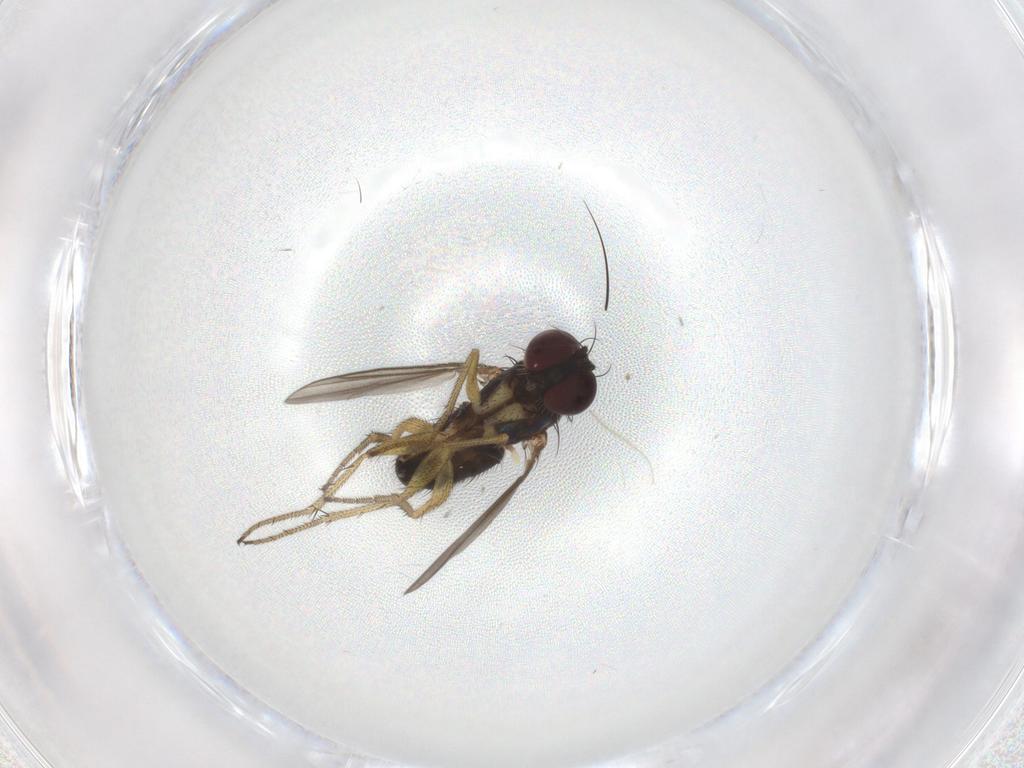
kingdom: Animalia
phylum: Arthropoda
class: Insecta
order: Diptera
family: Dolichopodidae
